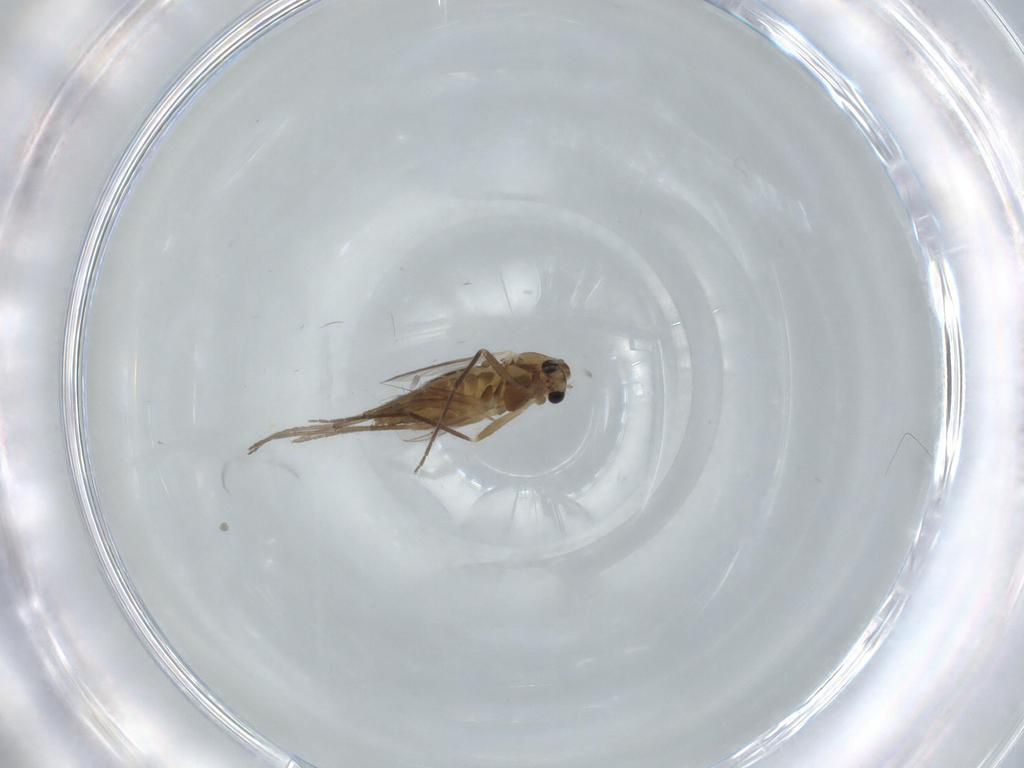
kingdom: Animalia
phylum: Arthropoda
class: Insecta
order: Diptera
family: Chironomidae
